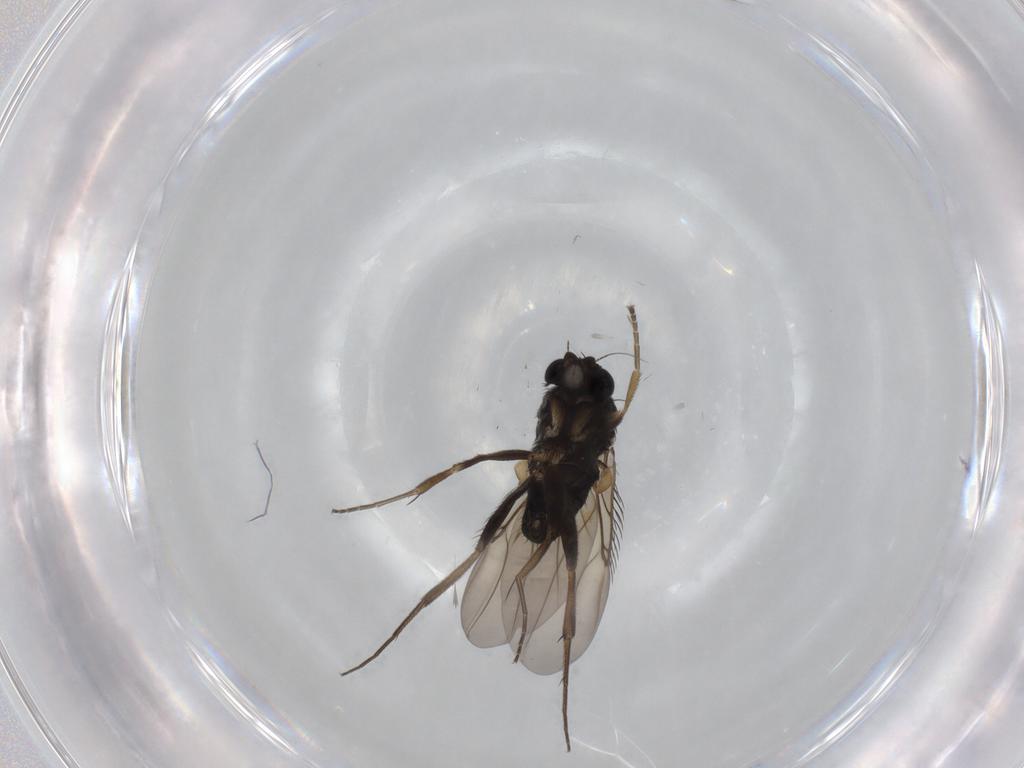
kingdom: Animalia
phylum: Arthropoda
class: Insecta
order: Diptera
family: Phoridae
